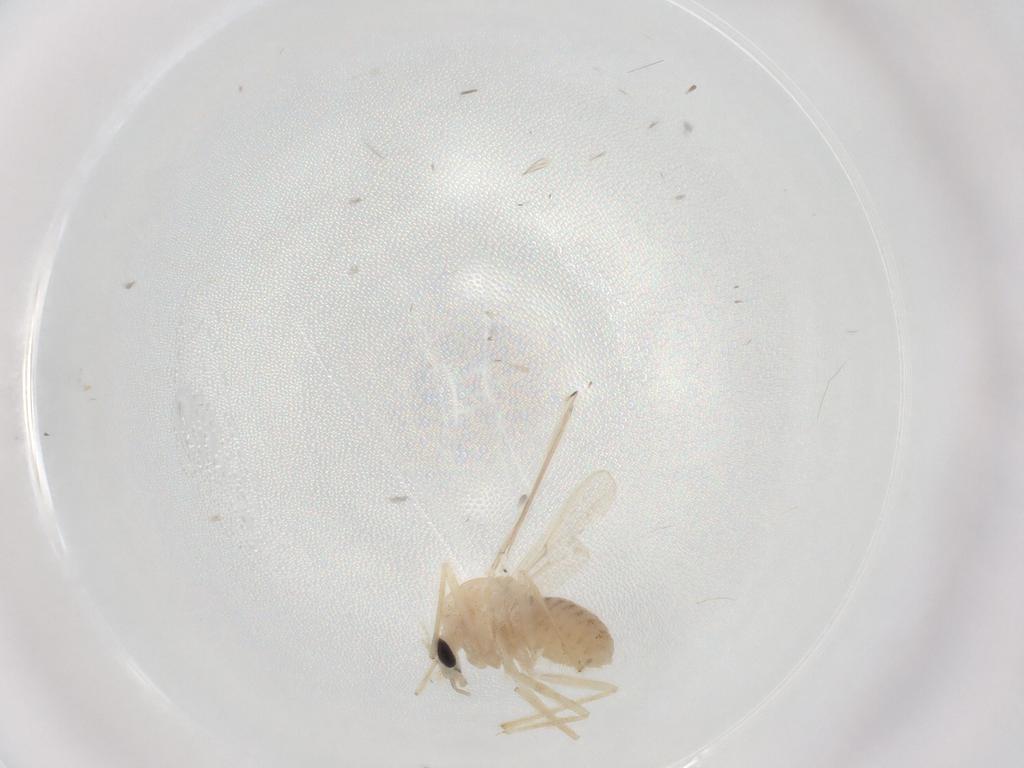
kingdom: Animalia
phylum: Arthropoda
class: Insecta
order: Diptera
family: Chironomidae
